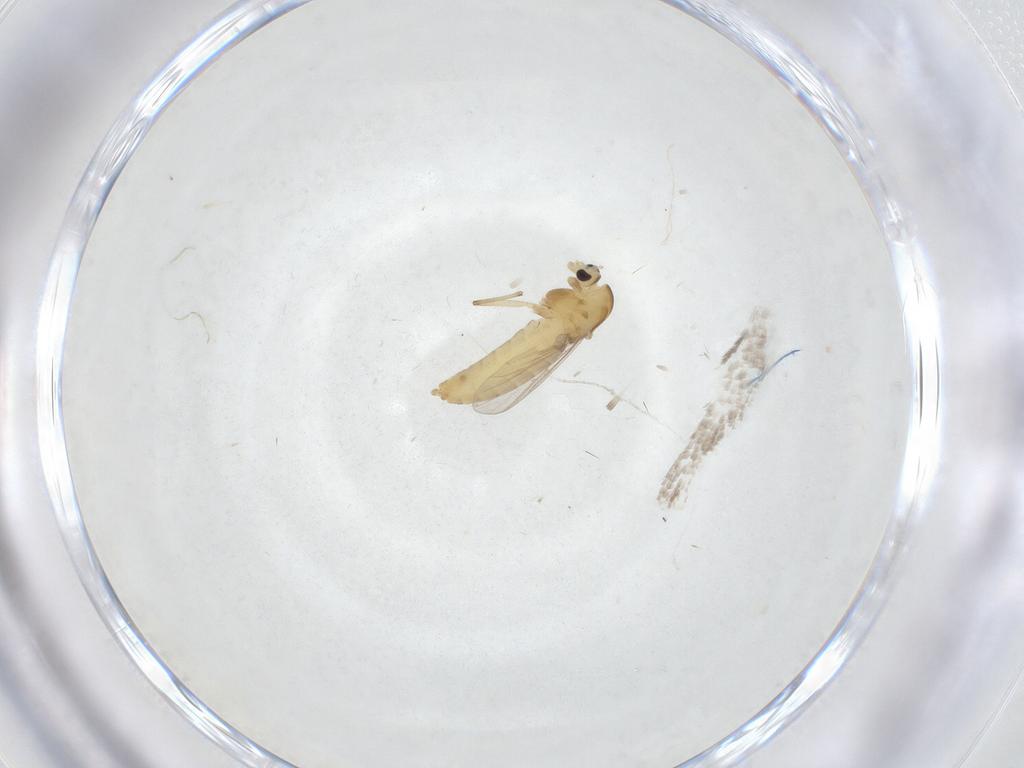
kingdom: Animalia
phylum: Arthropoda
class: Insecta
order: Diptera
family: Chironomidae
